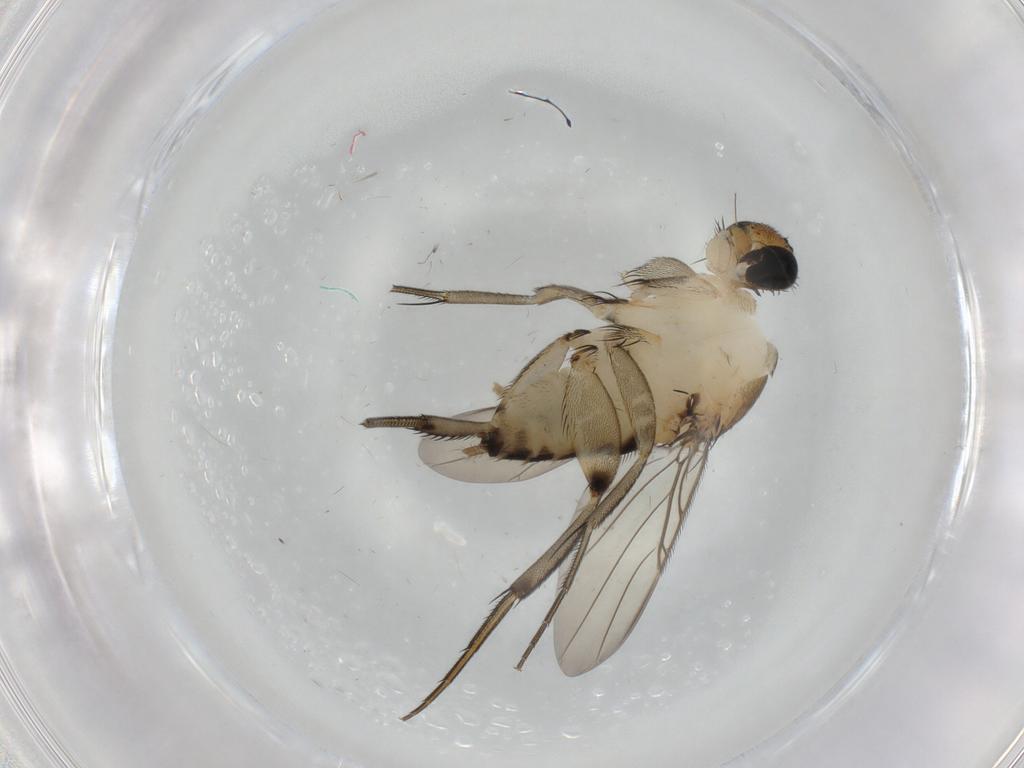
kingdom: Animalia
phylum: Arthropoda
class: Insecta
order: Diptera
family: Phoridae
